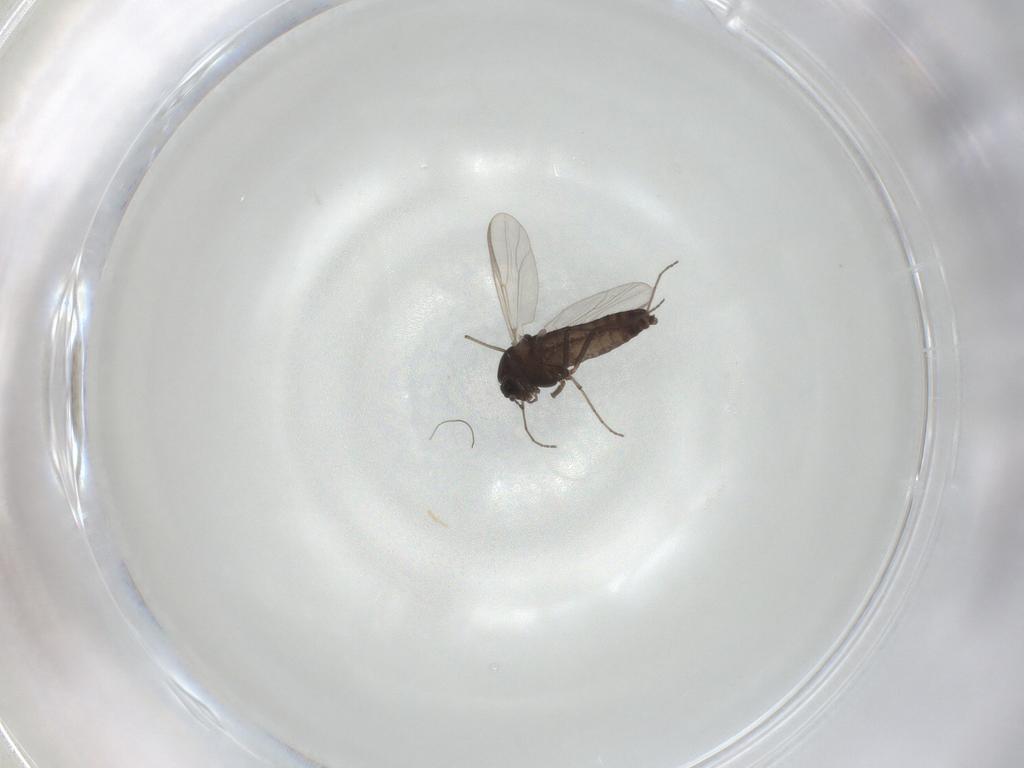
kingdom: Animalia
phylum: Arthropoda
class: Insecta
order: Diptera
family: Chironomidae
